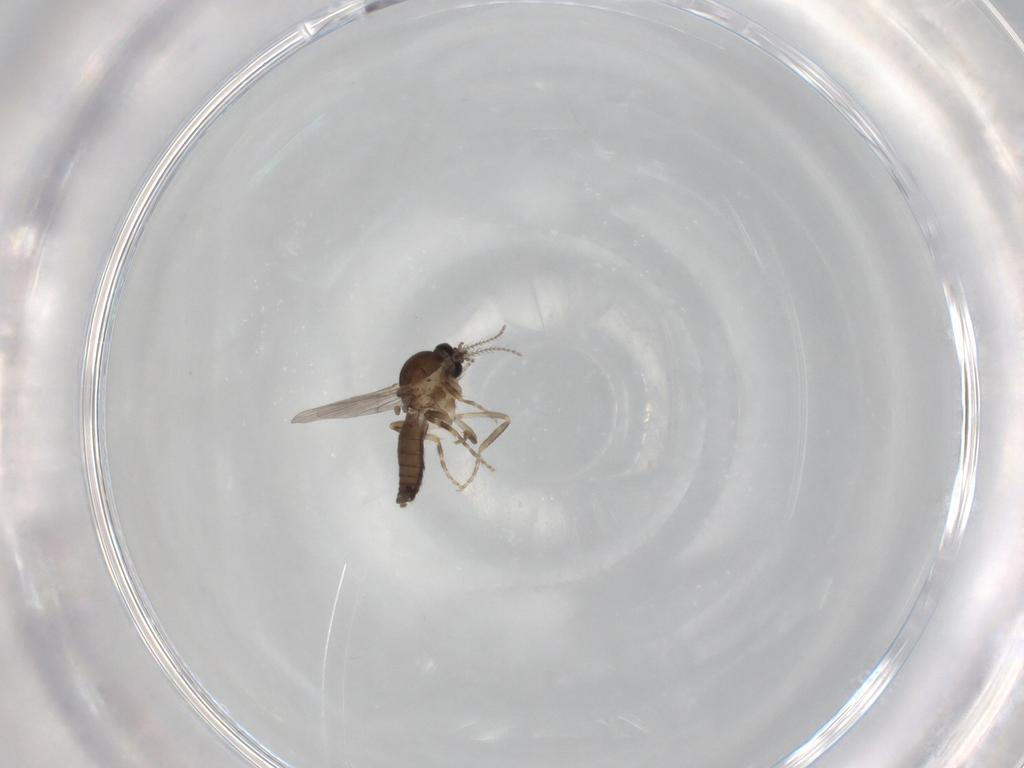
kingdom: Animalia
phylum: Arthropoda
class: Insecta
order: Diptera
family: Ceratopogonidae
